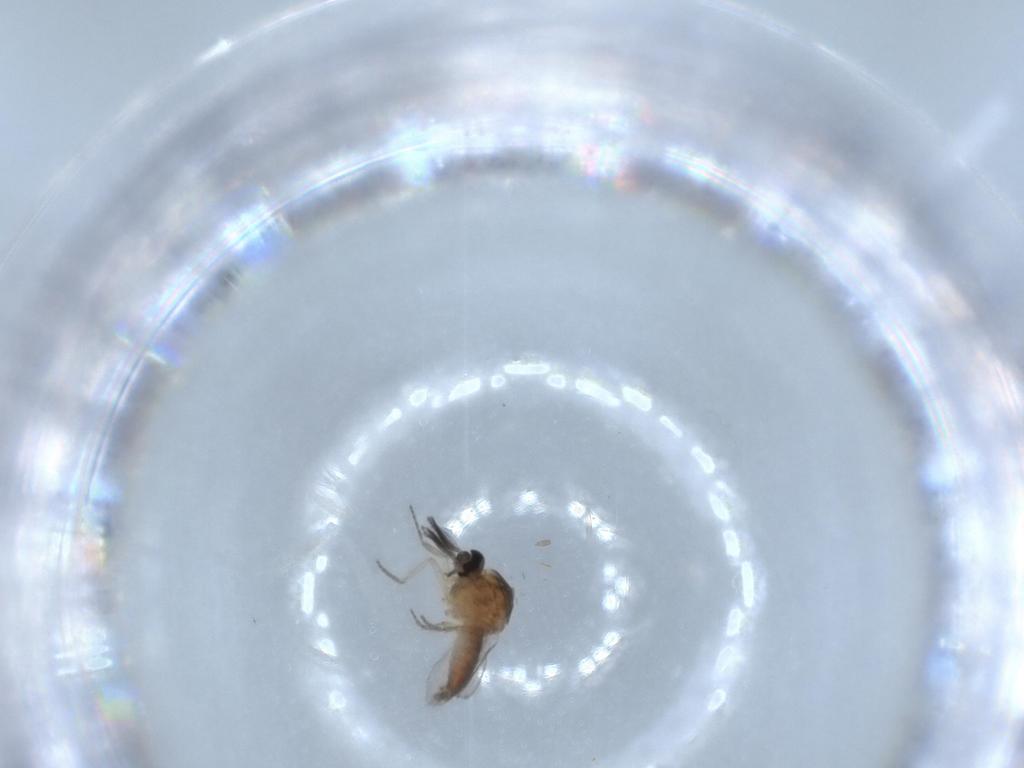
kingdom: Animalia
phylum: Arthropoda
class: Insecta
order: Diptera
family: Ceratopogonidae
